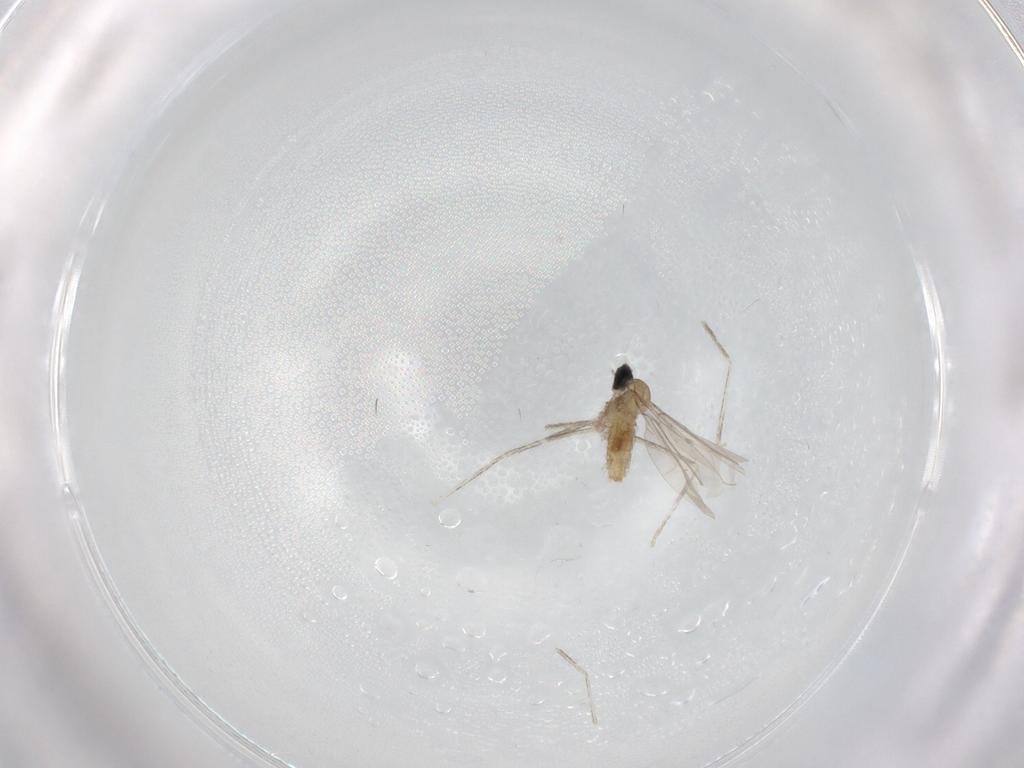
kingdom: Animalia
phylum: Arthropoda
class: Insecta
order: Diptera
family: Cecidomyiidae
